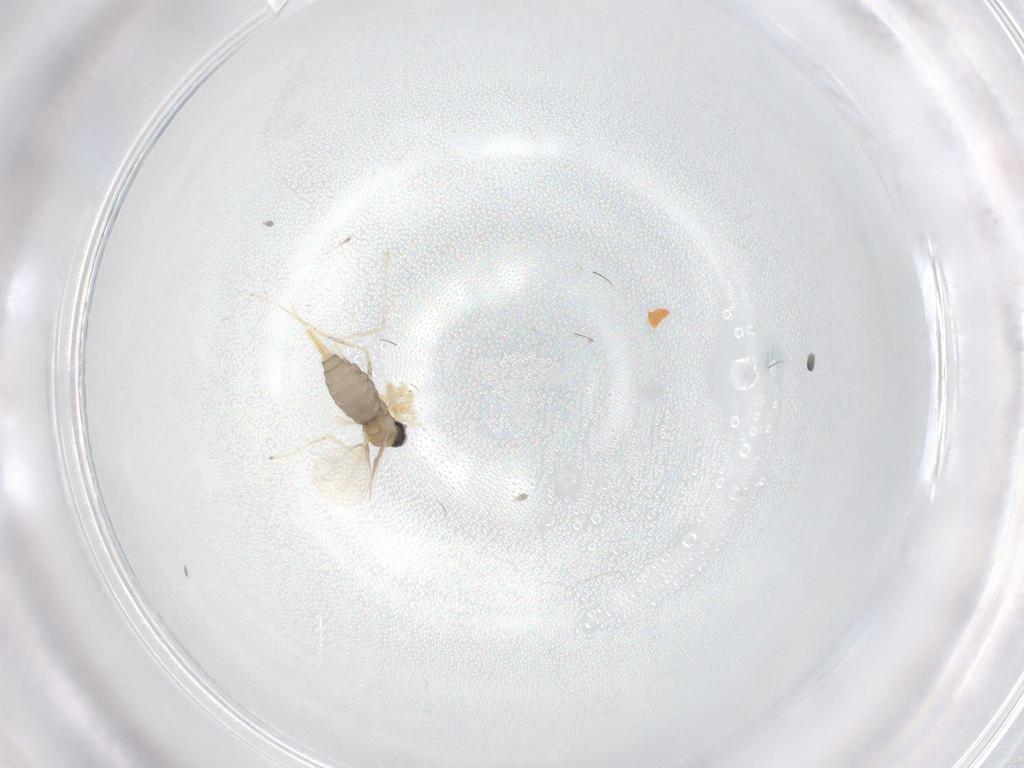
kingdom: Animalia
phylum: Arthropoda
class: Insecta
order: Diptera
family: Cecidomyiidae
